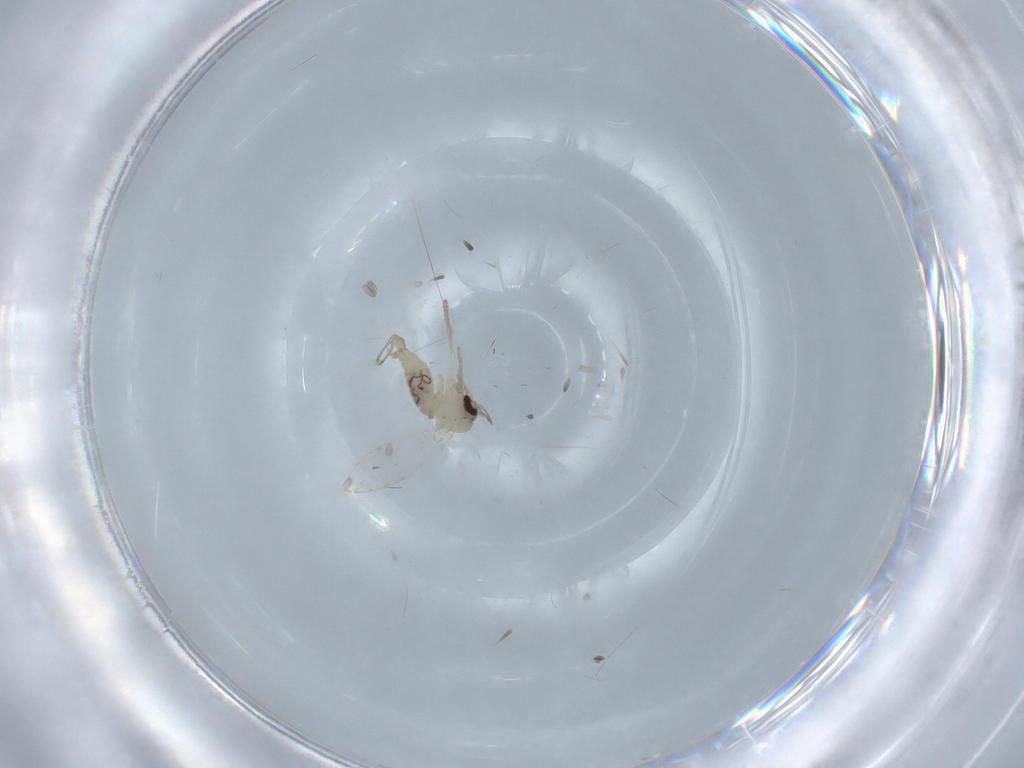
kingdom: Animalia
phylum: Arthropoda
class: Insecta
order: Diptera
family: Psychodidae
